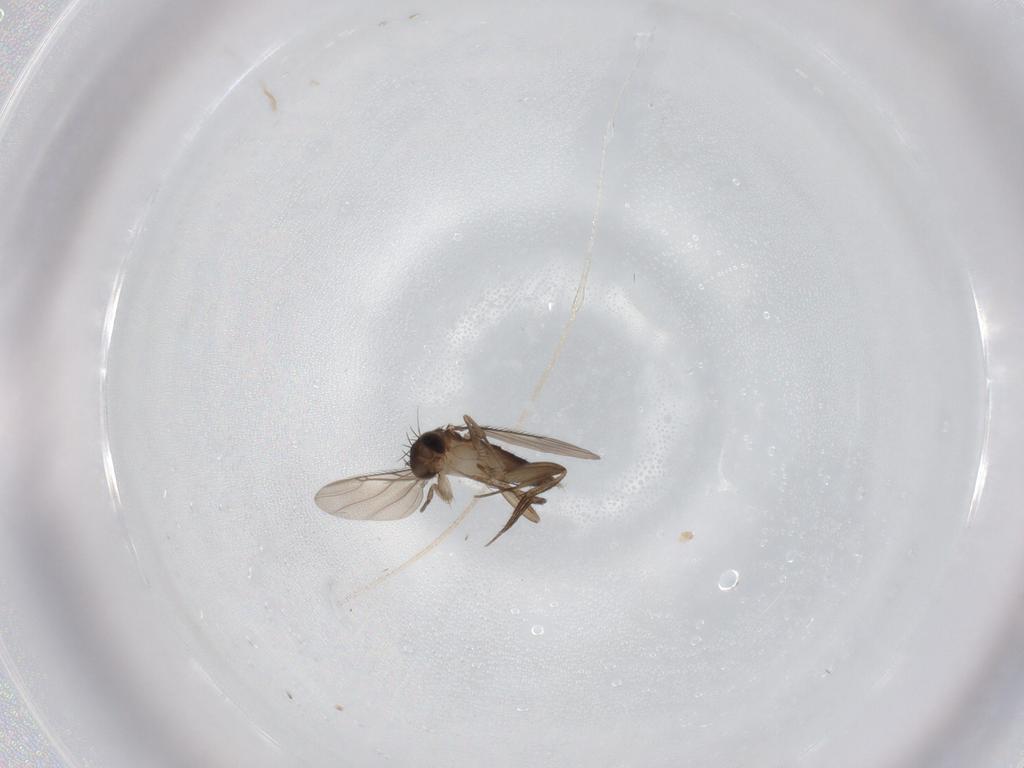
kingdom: Animalia
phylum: Arthropoda
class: Insecta
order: Diptera
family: Phoridae
